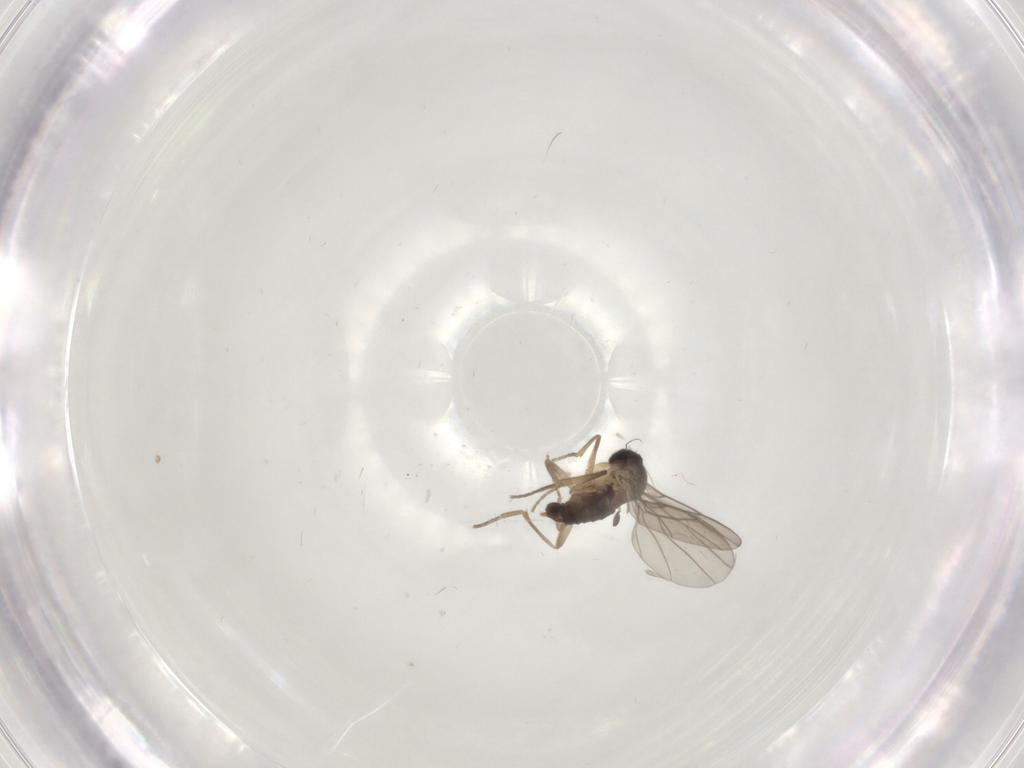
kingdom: Animalia
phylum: Arthropoda
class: Insecta
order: Diptera
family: Phoridae
